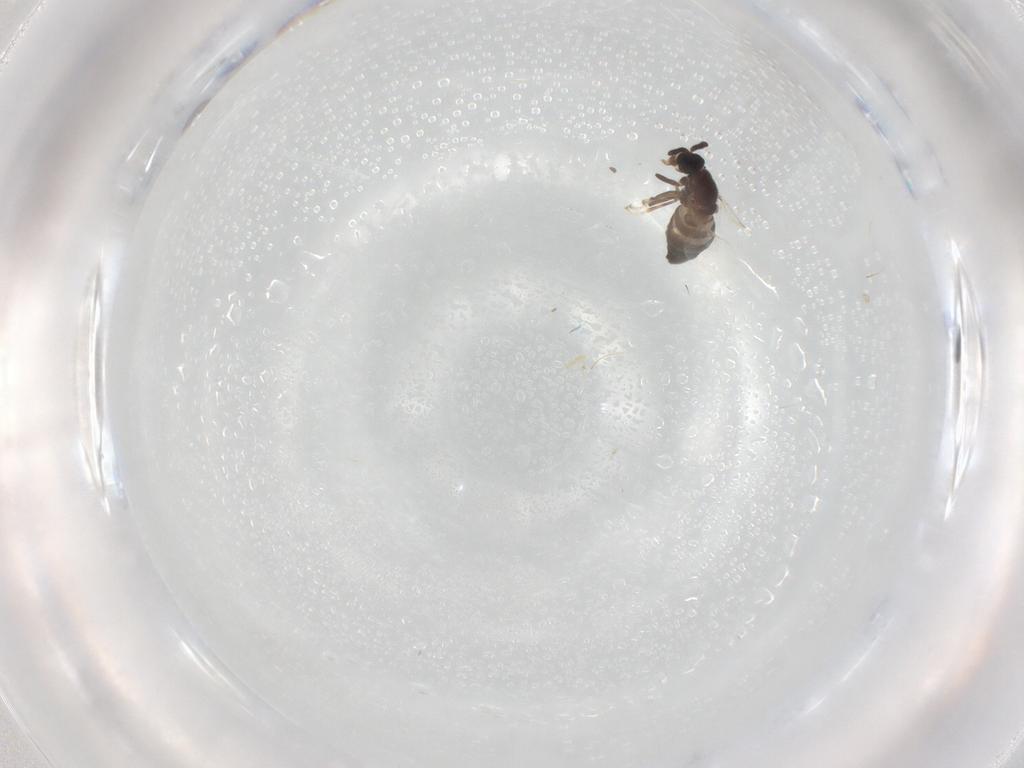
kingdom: Animalia
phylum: Arthropoda
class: Insecta
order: Diptera
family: Scatopsidae
